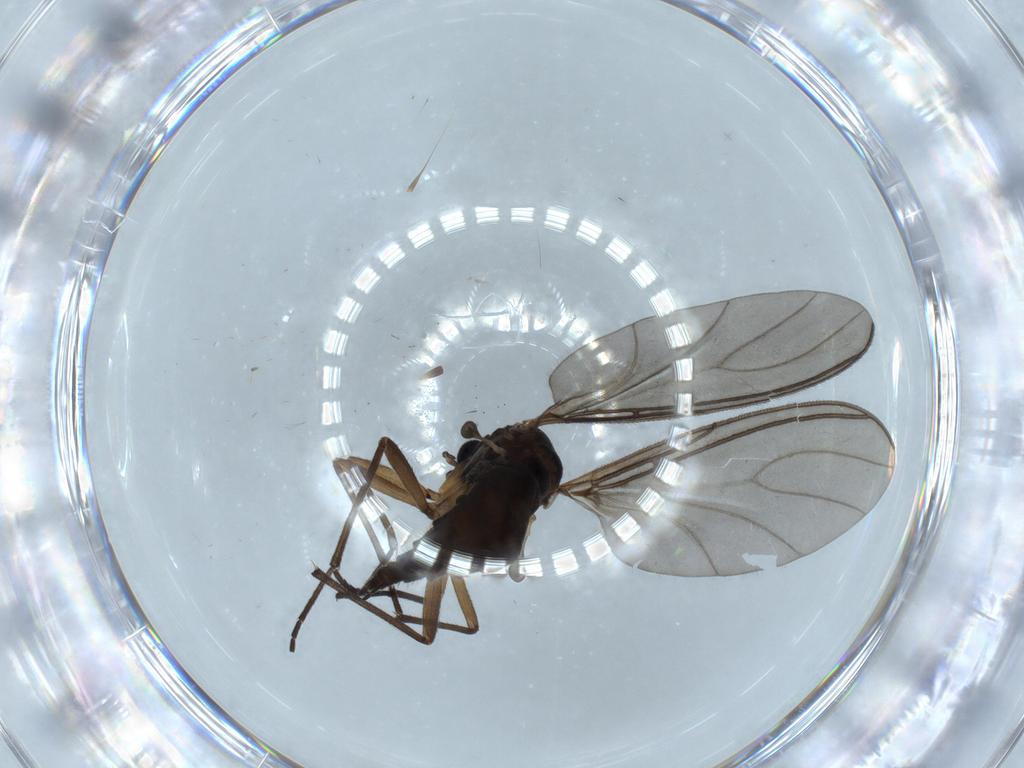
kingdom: Animalia
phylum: Arthropoda
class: Insecta
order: Diptera
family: Sciaridae
